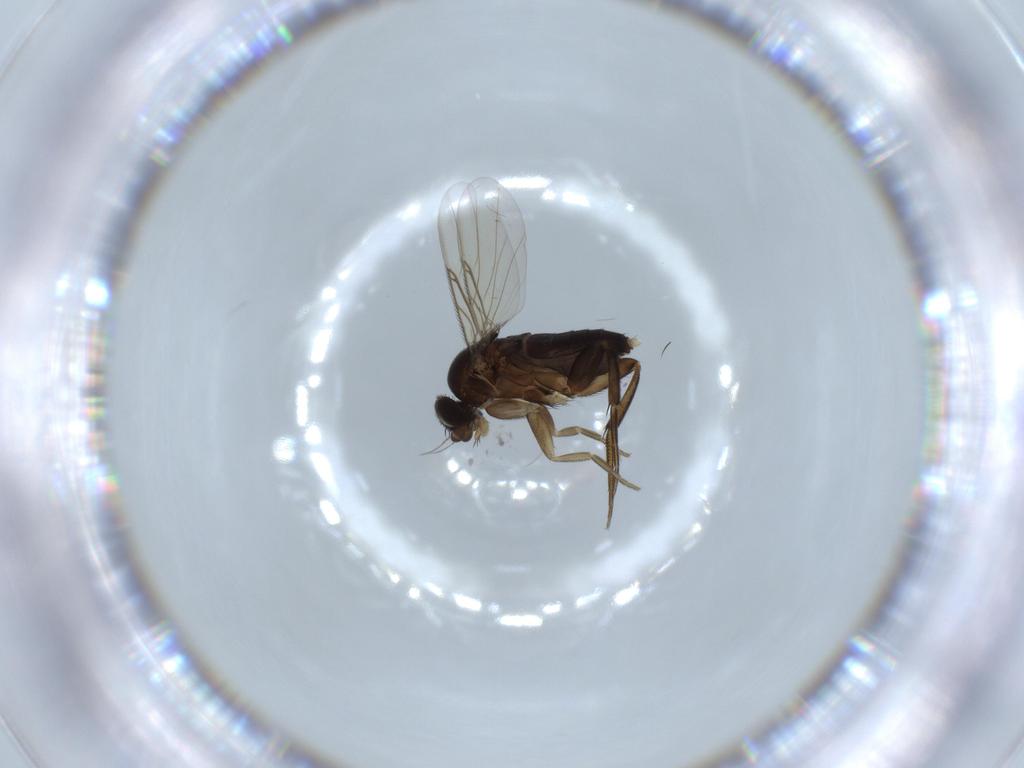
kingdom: Animalia
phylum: Arthropoda
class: Insecta
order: Diptera
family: Phoridae
